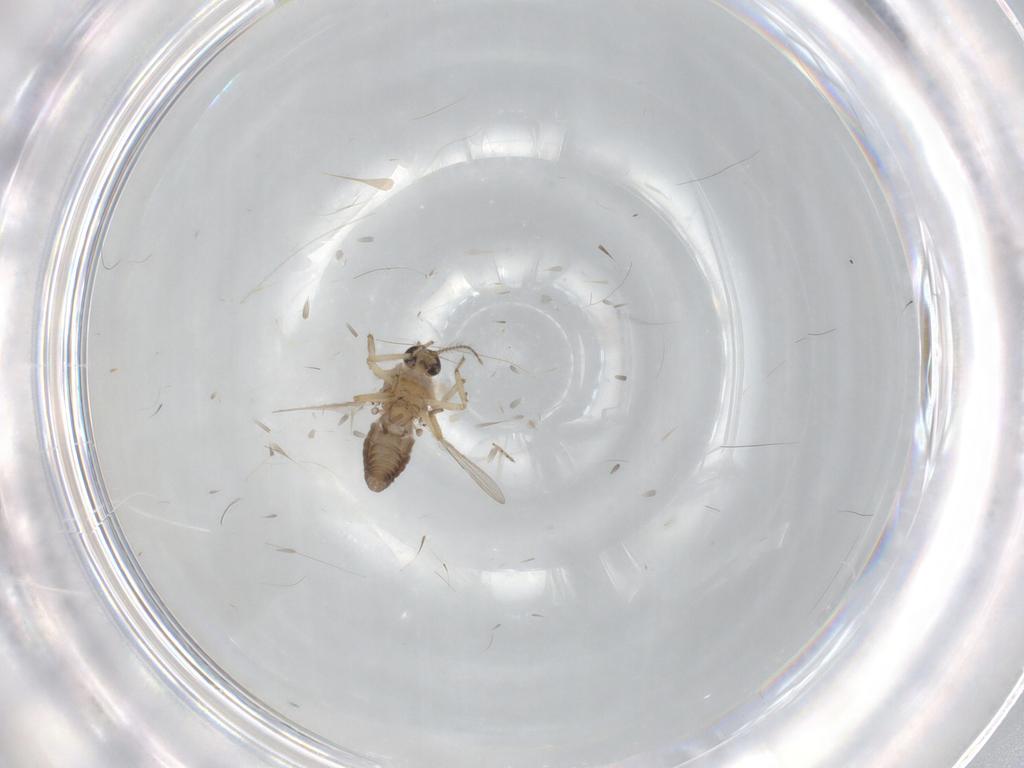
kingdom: Animalia
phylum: Arthropoda
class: Insecta
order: Diptera
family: Ceratopogonidae
